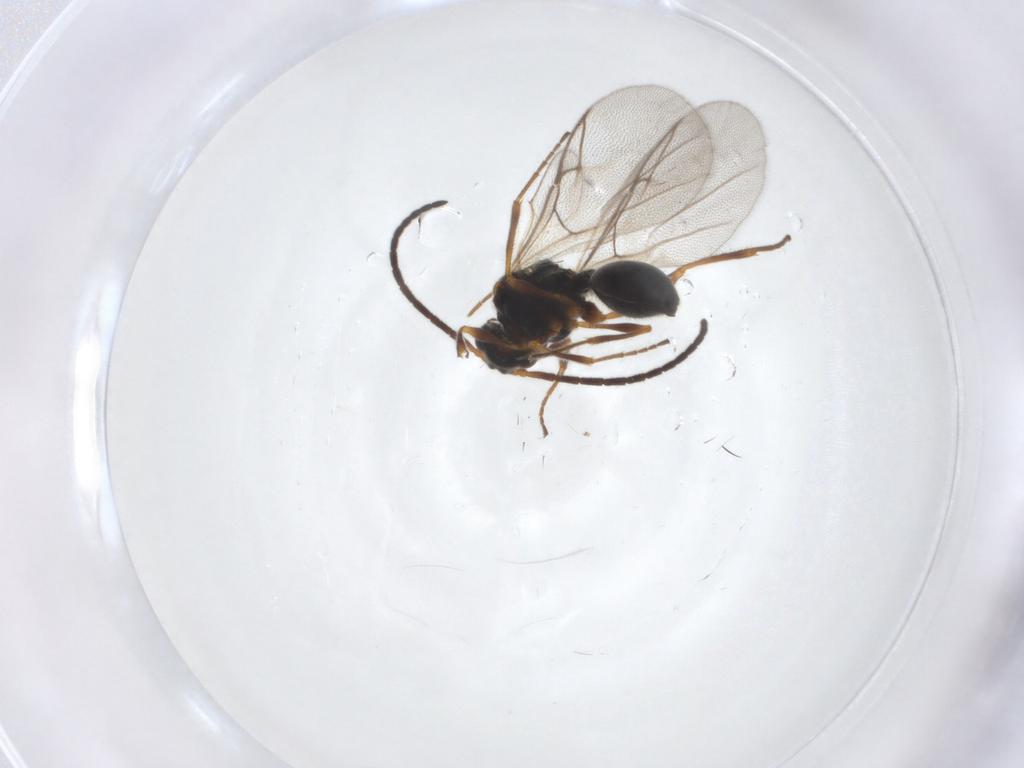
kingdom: Animalia
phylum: Arthropoda
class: Insecta
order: Hymenoptera
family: Diapriidae
